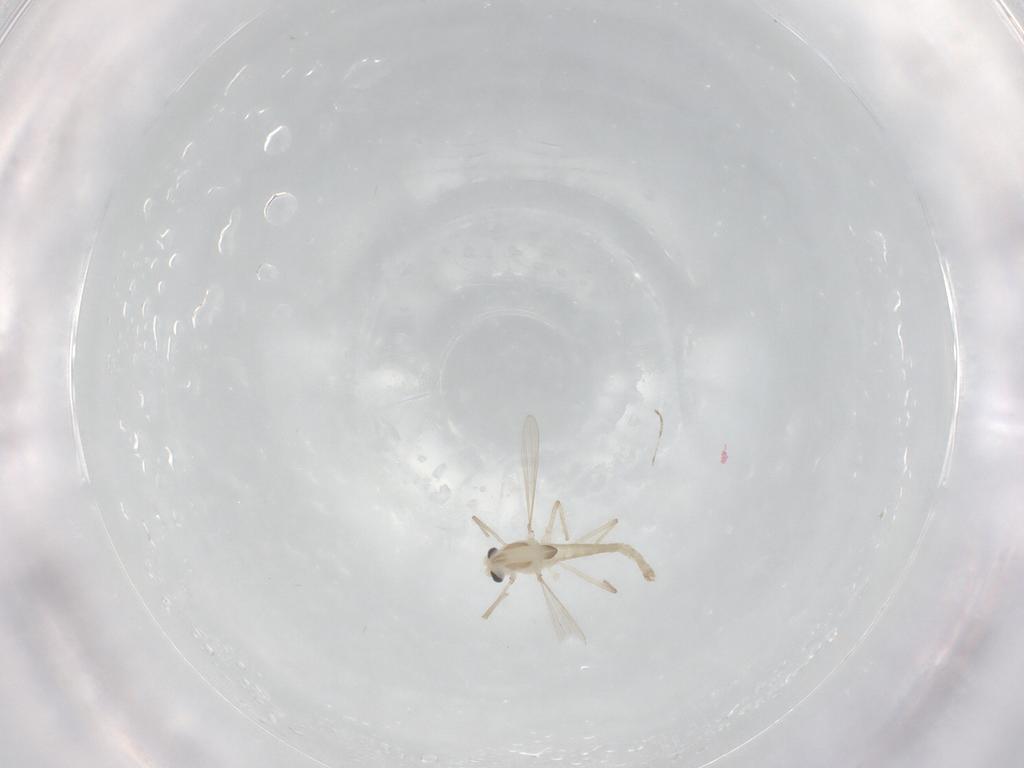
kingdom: Animalia
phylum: Arthropoda
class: Insecta
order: Diptera
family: Chironomidae
